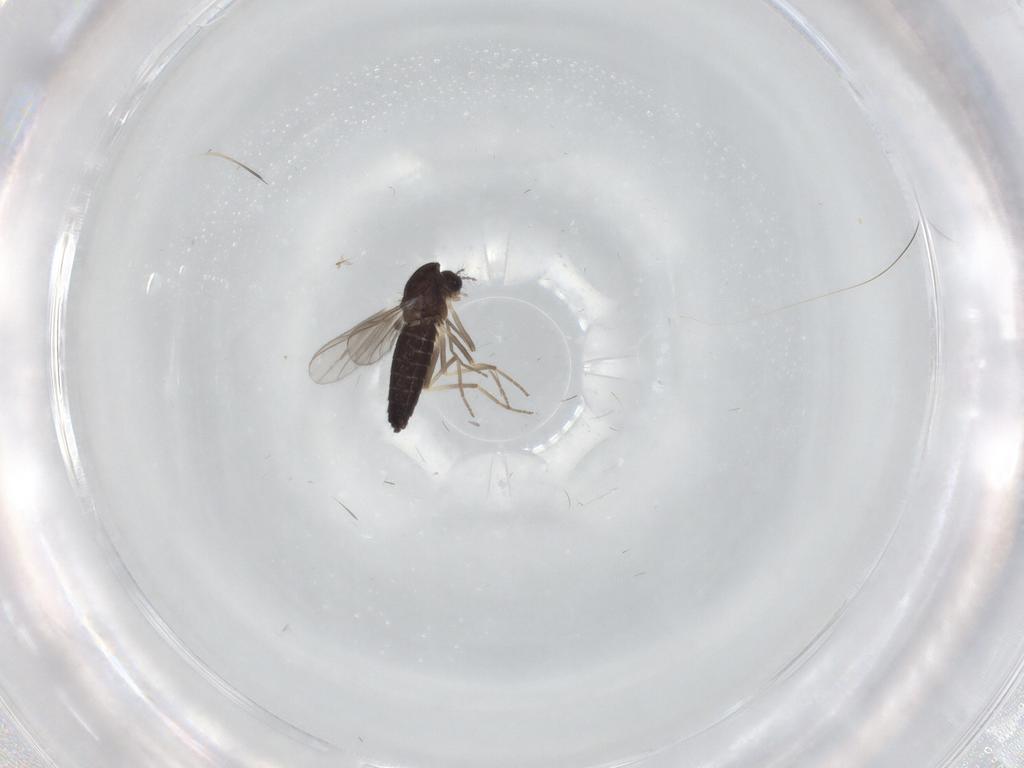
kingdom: Animalia
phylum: Arthropoda
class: Insecta
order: Diptera
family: Chironomidae
